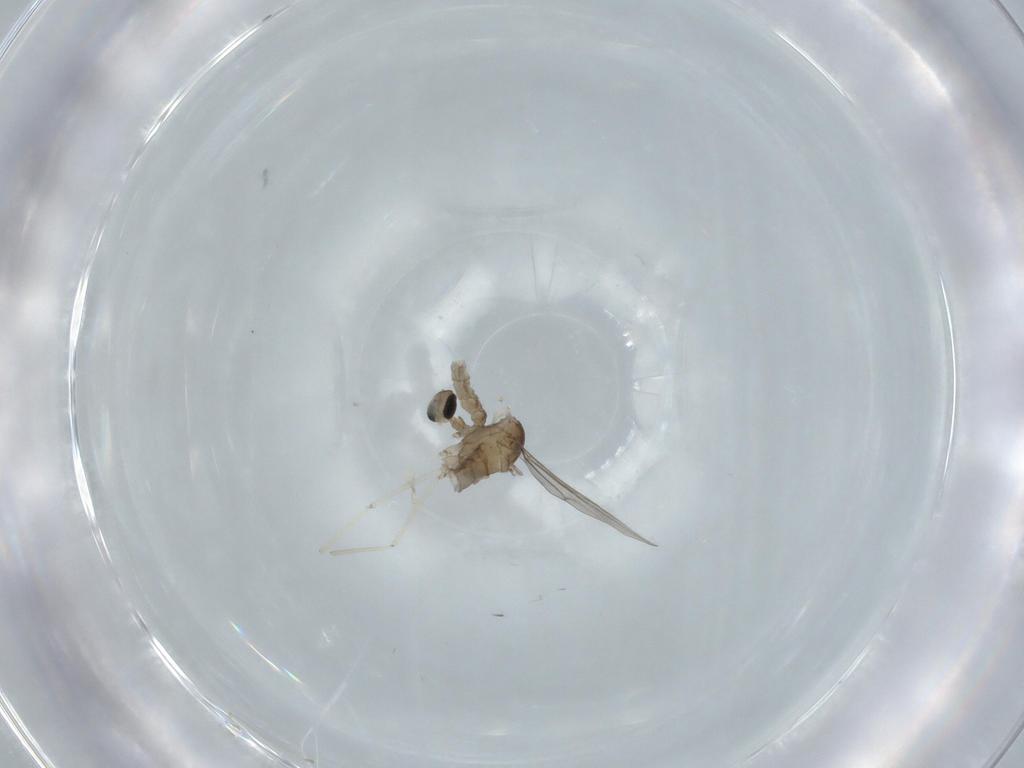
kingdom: Animalia
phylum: Arthropoda
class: Insecta
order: Diptera
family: Cecidomyiidae
